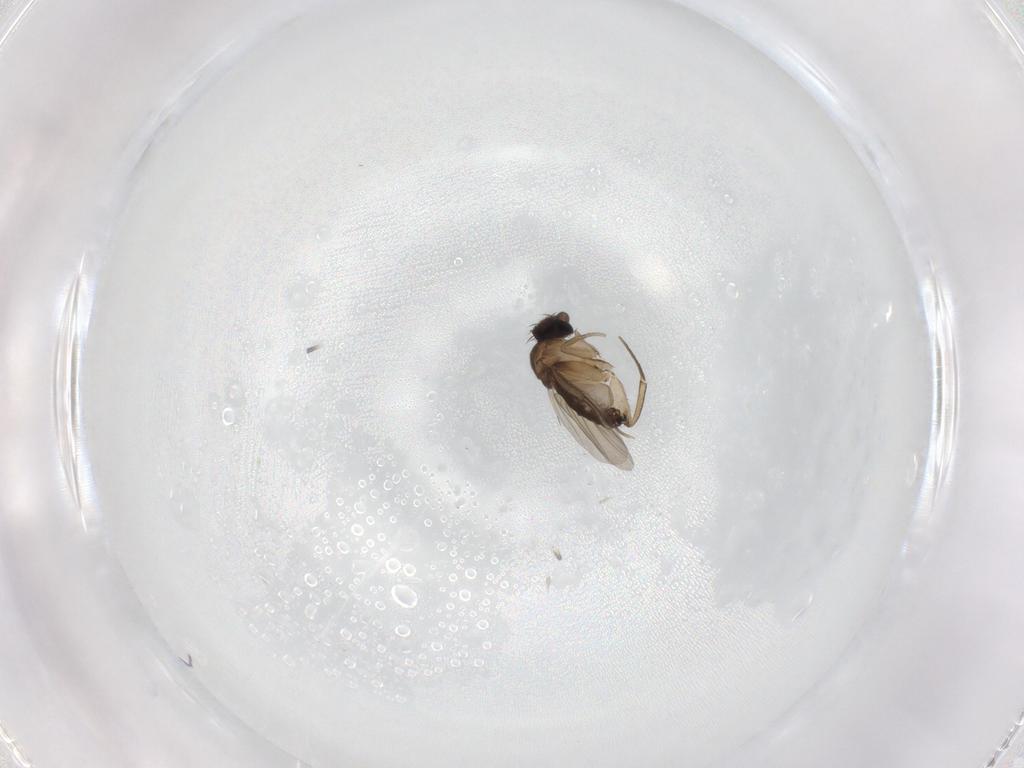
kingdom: Animalia
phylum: Arthropoda
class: Insecta
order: Diptera
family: Phoridae
